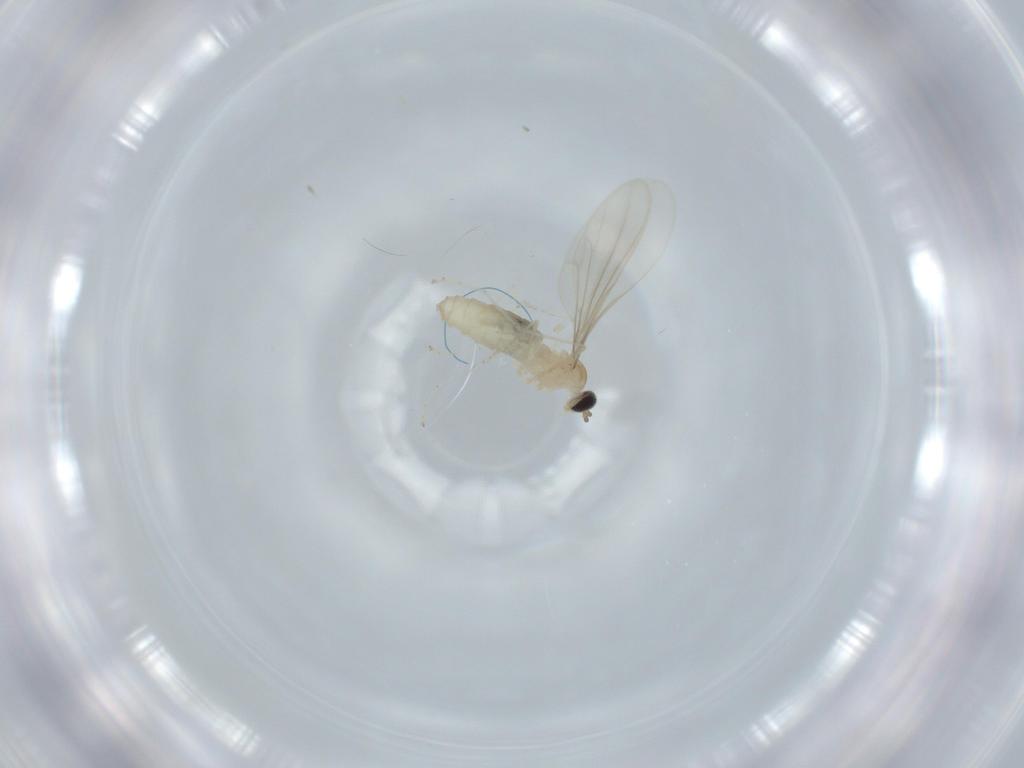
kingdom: Animalia
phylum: Arthropoda
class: Insecta
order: Diptera
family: Cecidomyiidae
